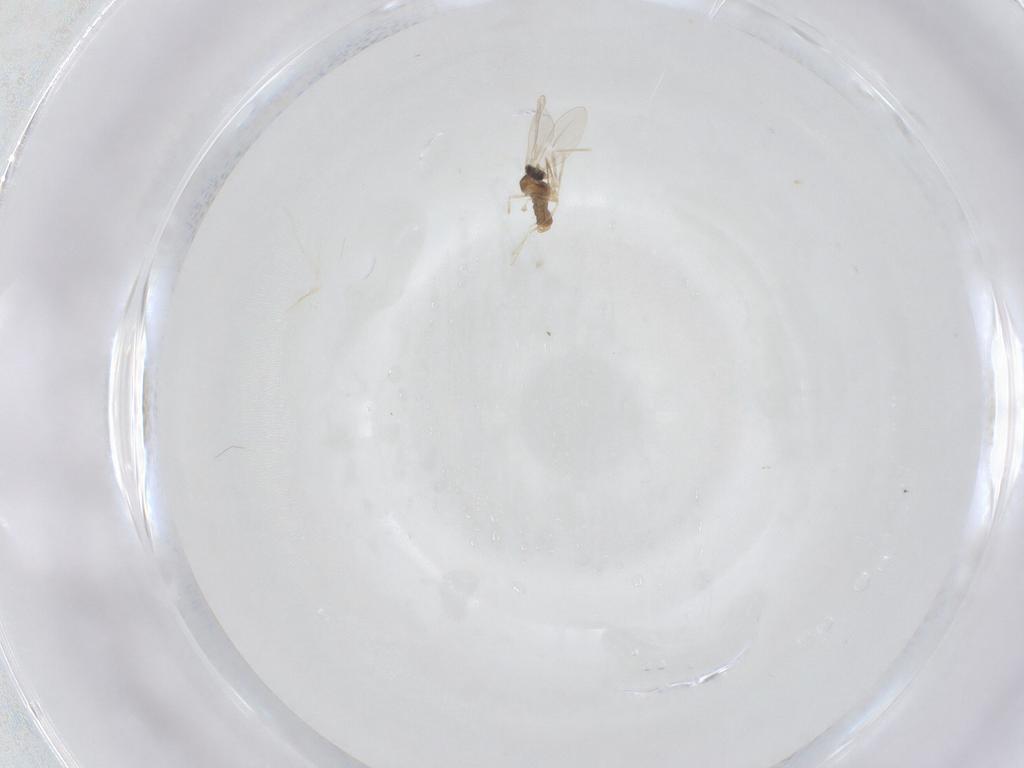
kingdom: Animalia
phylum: Arthropoda
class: Insecta
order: Diptera
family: Cecidomyiidae
